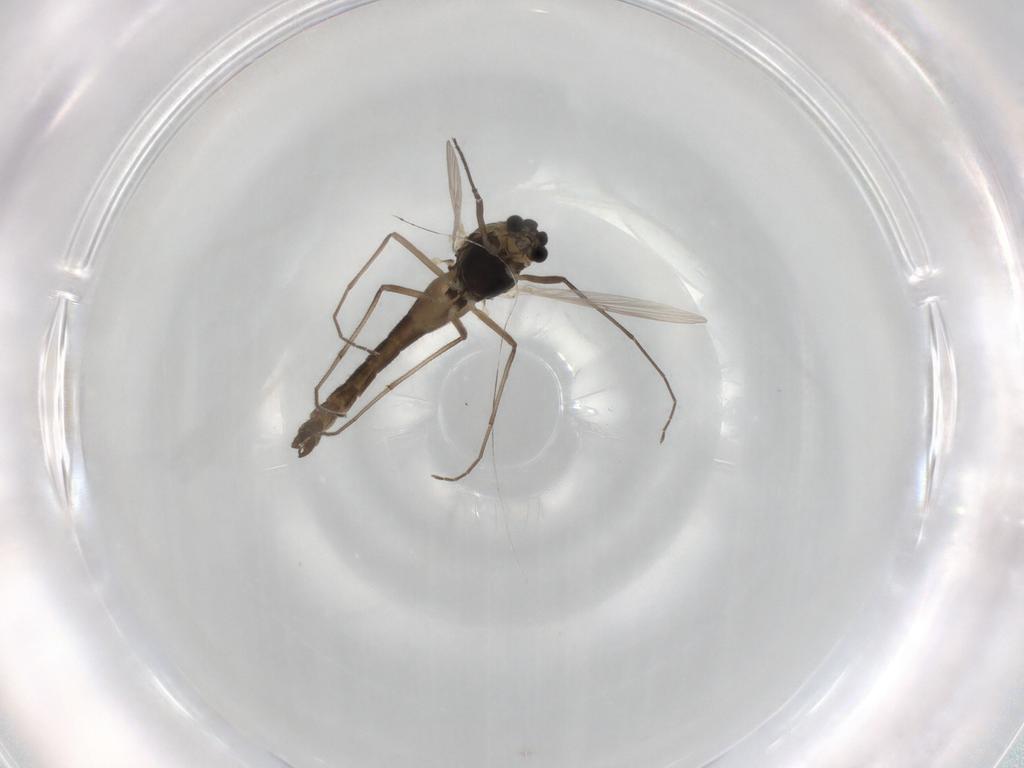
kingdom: Animalia
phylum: Arthropoda
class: Insecta
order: Diptera
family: Chironomidae
